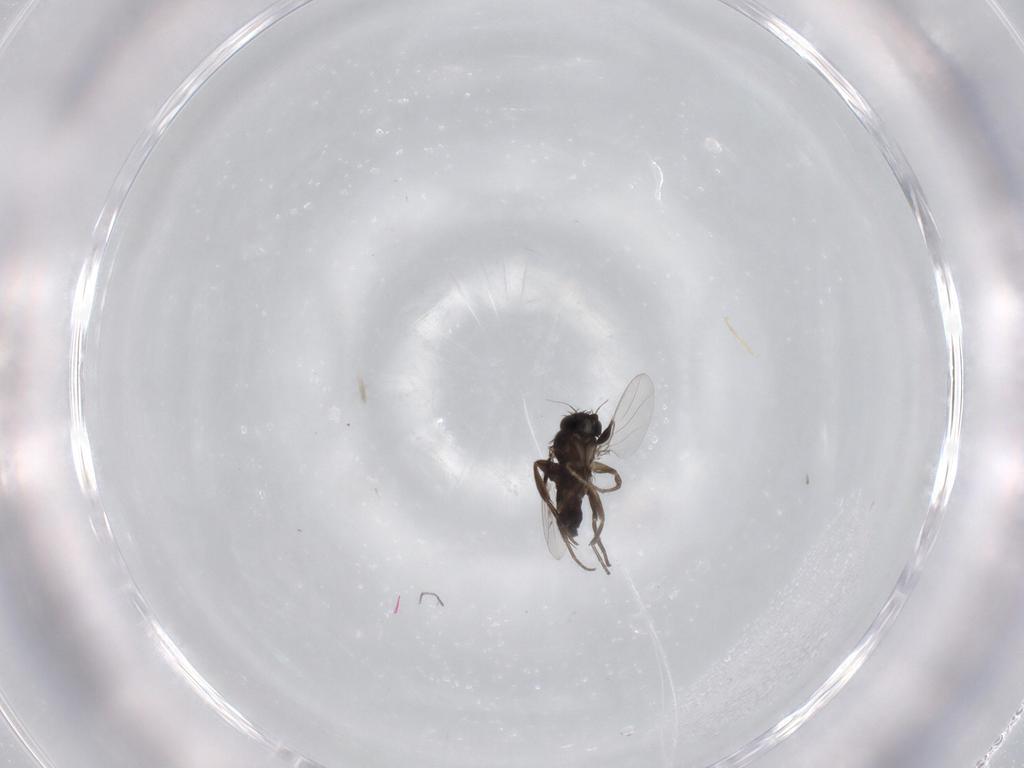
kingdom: Animalia
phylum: Arthropoda
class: Insecta
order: Diptera
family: Phoridae
